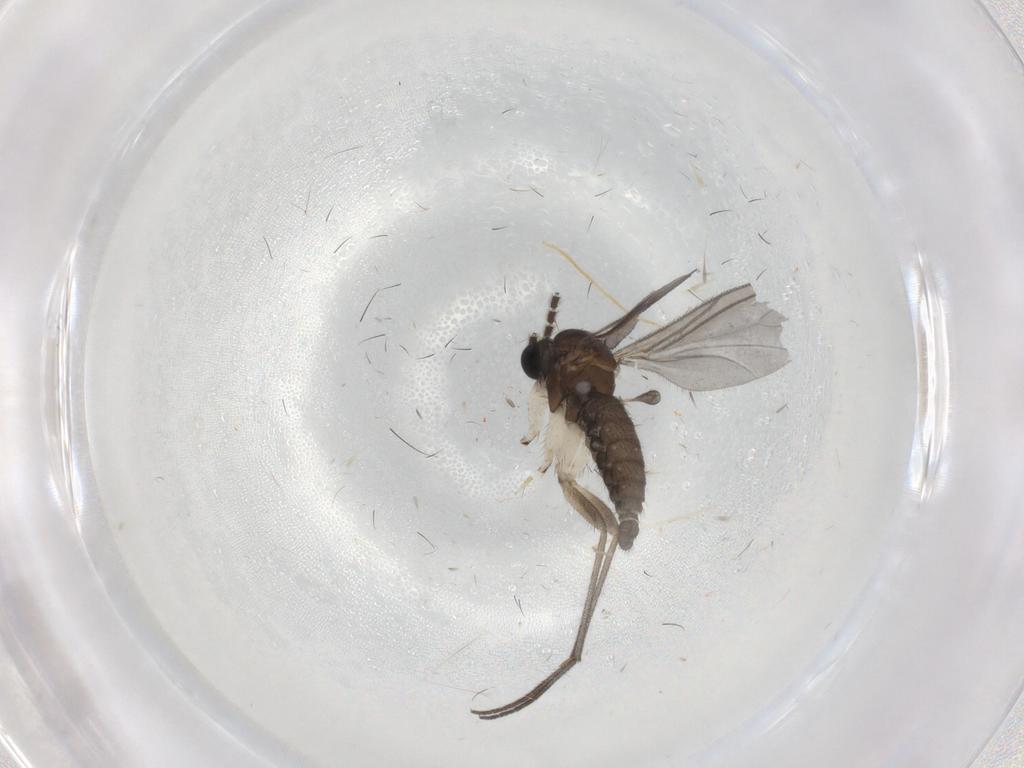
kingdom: Animalia
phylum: Arthropoda
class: Insecta
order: Diptera
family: Sciaridae
